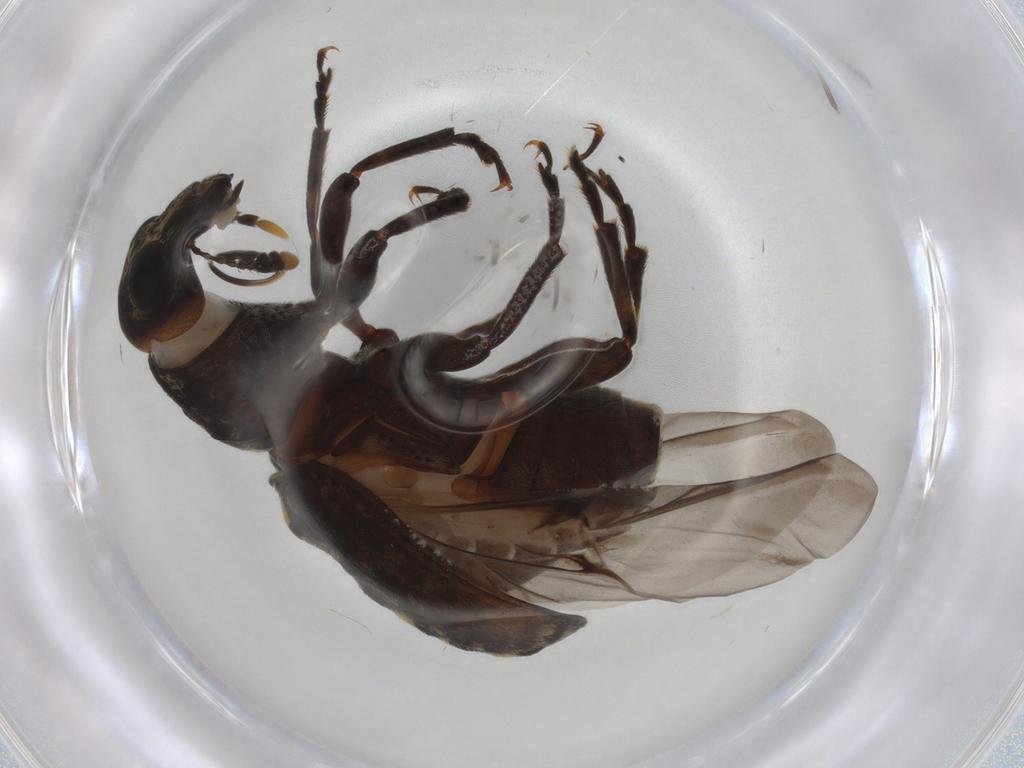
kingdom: Animalia
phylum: Arthropoda
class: Insecta
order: Coleoptera
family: Anthribidae
